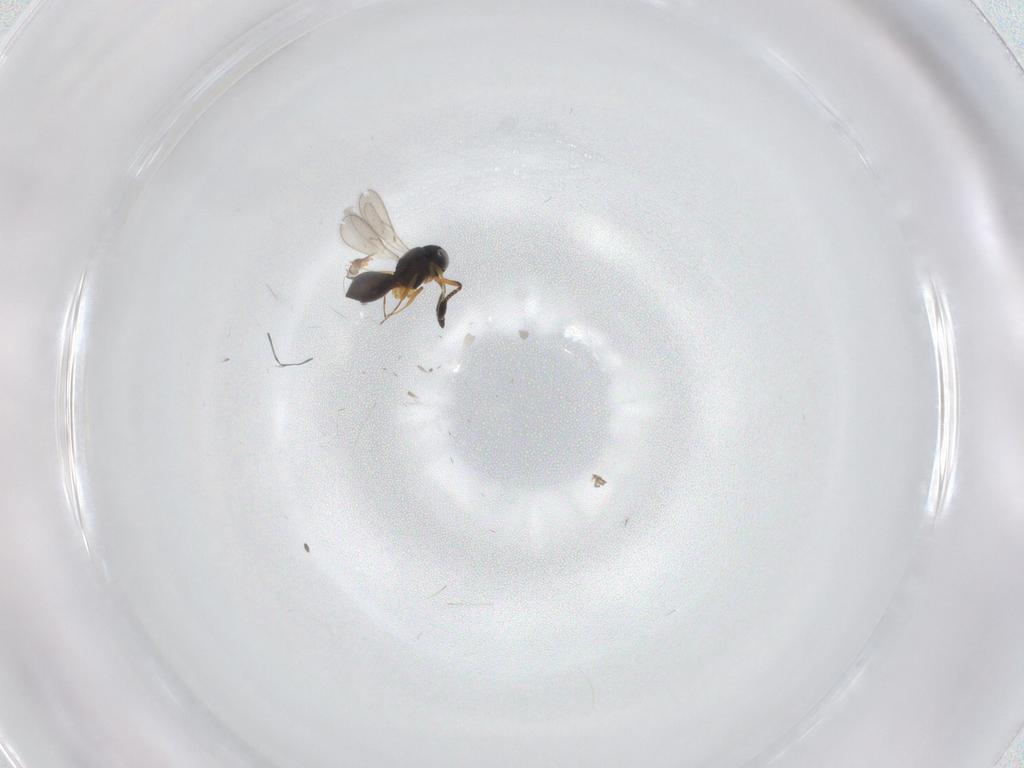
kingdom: Animalia
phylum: Arthropoda
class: Insecta
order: Hymenoptera
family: Scelionidae
